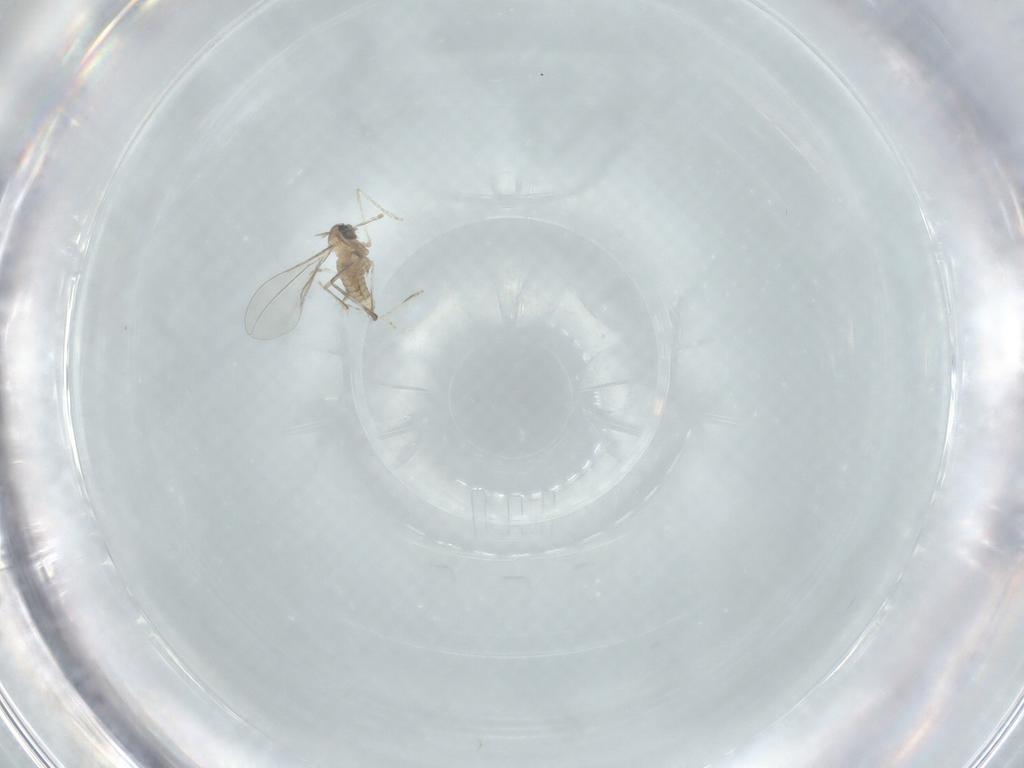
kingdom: Animalia
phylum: Arthropoda
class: Insecta
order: Diptera
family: Cecidomyiidae
